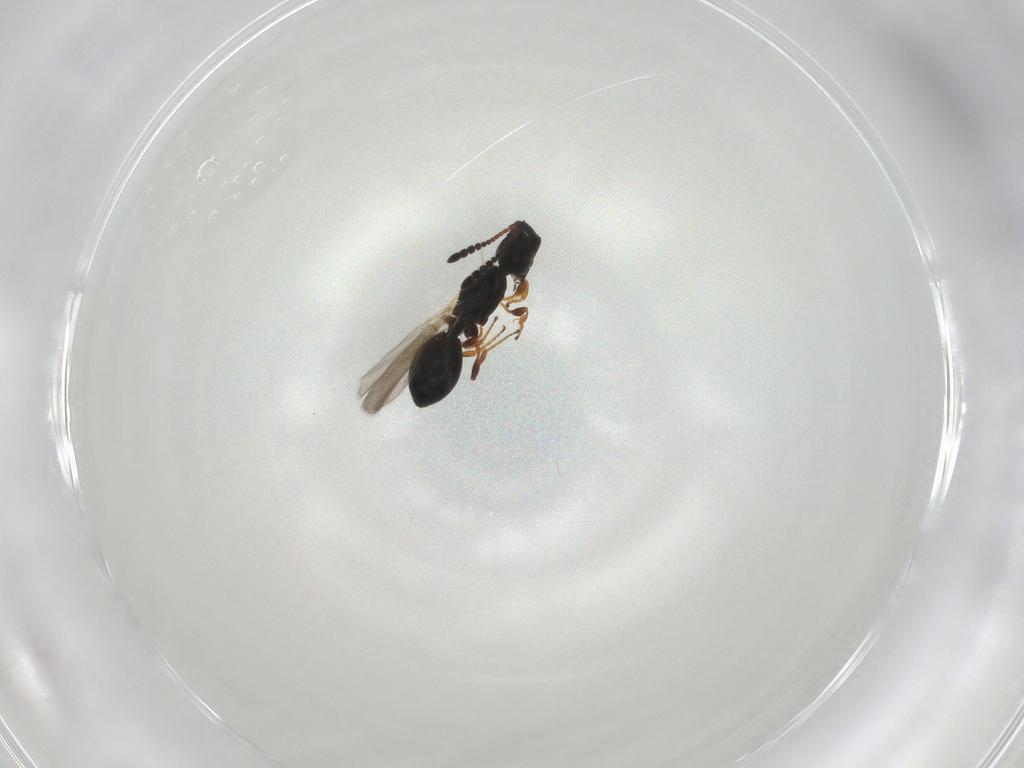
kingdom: Animalia
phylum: Arthropoda
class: Insecta
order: Hymenoptera
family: Diapriidae
